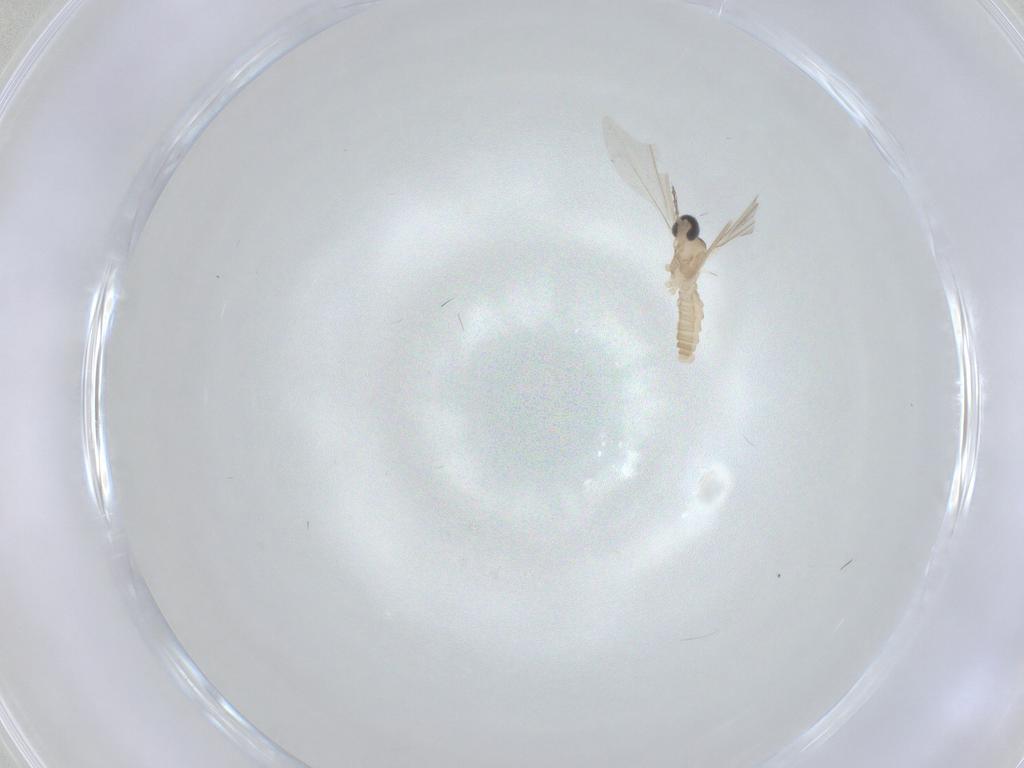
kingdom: Animalia
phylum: Arthropoda
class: Insecta
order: Diptera
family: Cecidomyiidae
